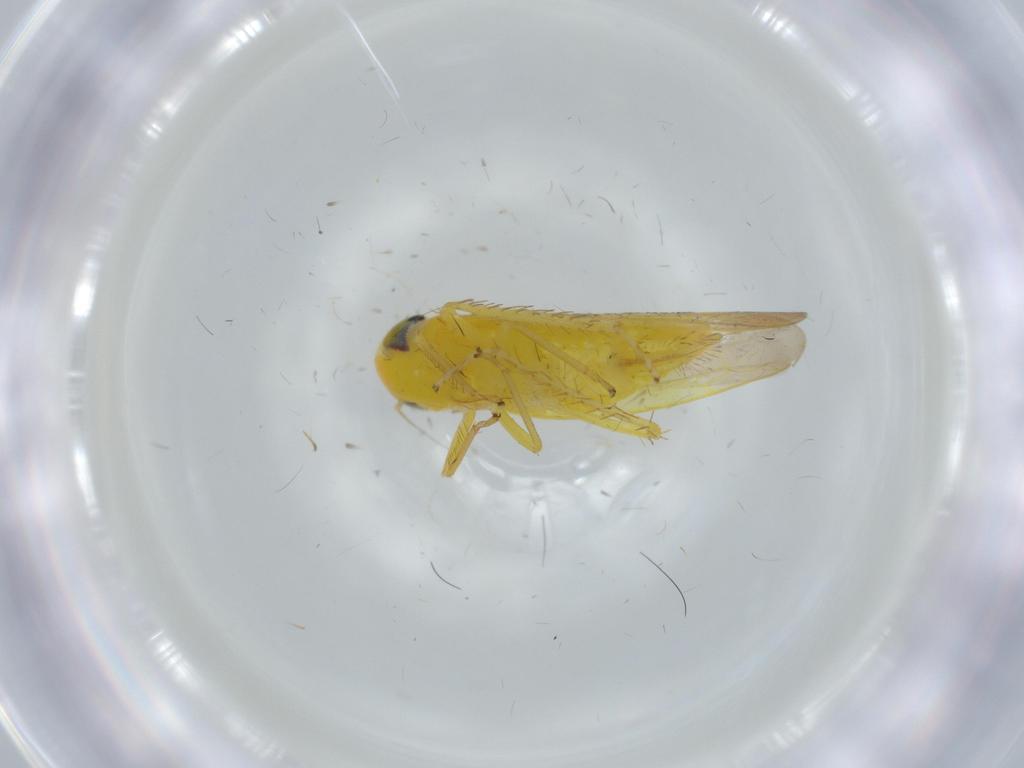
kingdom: Animalia
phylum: Arthropoda
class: Insecta
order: Hemiptera
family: Cicadellidae
